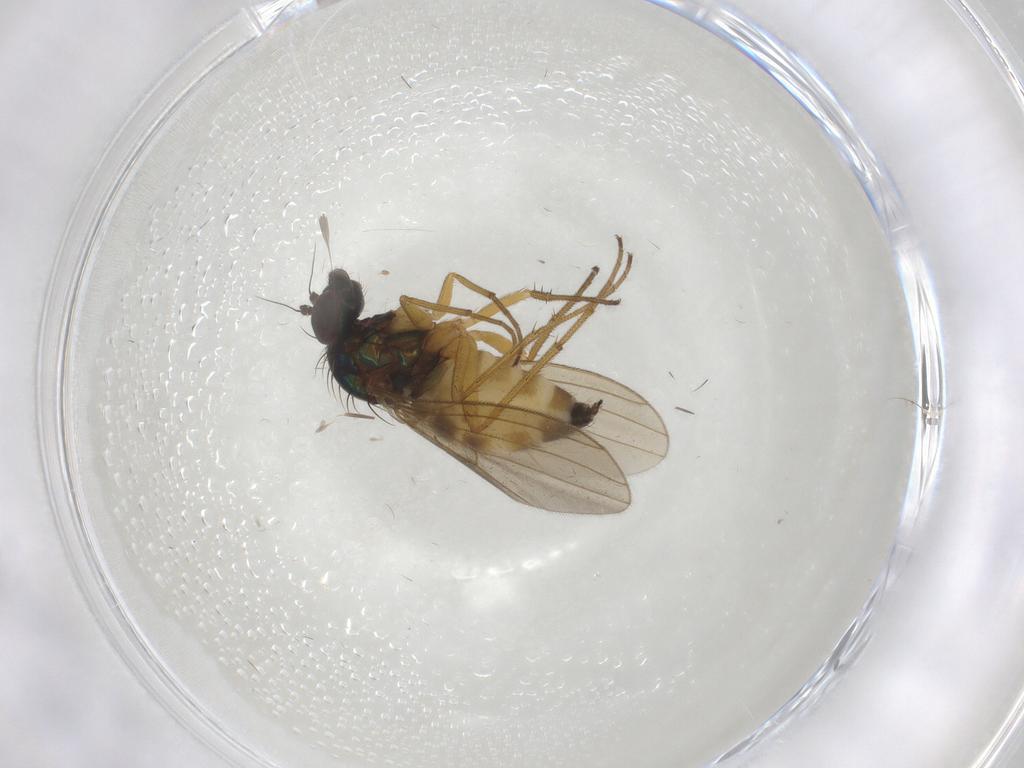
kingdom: Animalia
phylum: Arthropoda
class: Insecta
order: Diptera
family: Dolichopodidae
